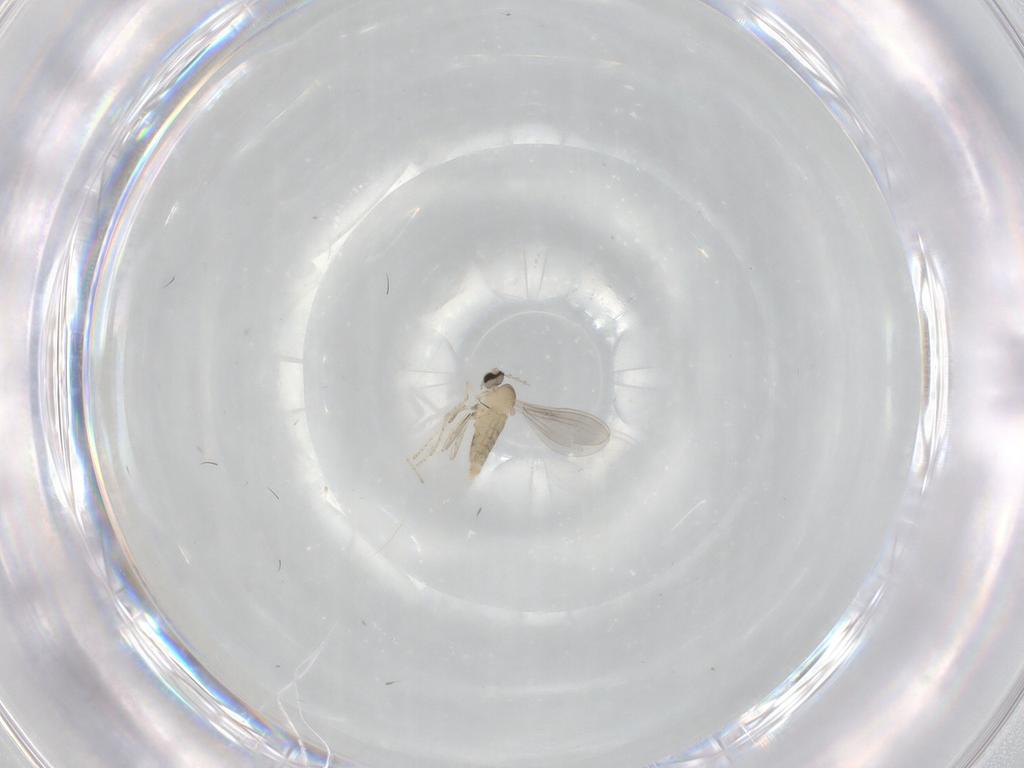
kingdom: Animalia
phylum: Arthropoda
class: Insecta
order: Diptera
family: Cecidomyiidae
